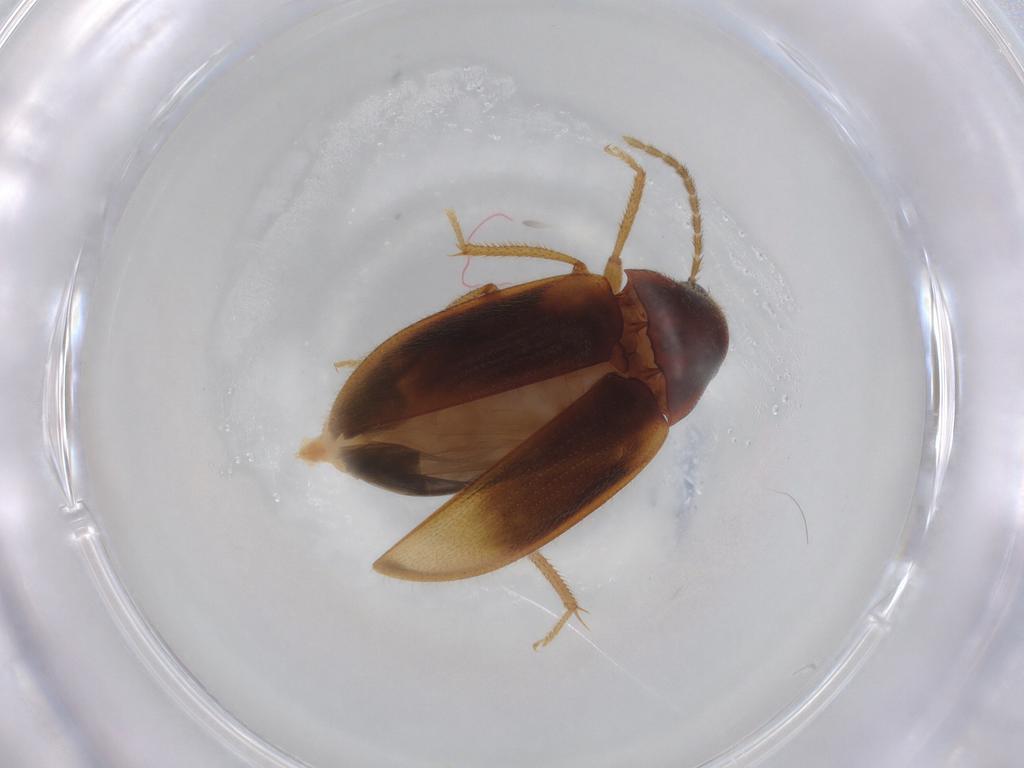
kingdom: Animalia
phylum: Arthropoda
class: Insecta
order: Coleoptera
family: Ptilodactylidae
